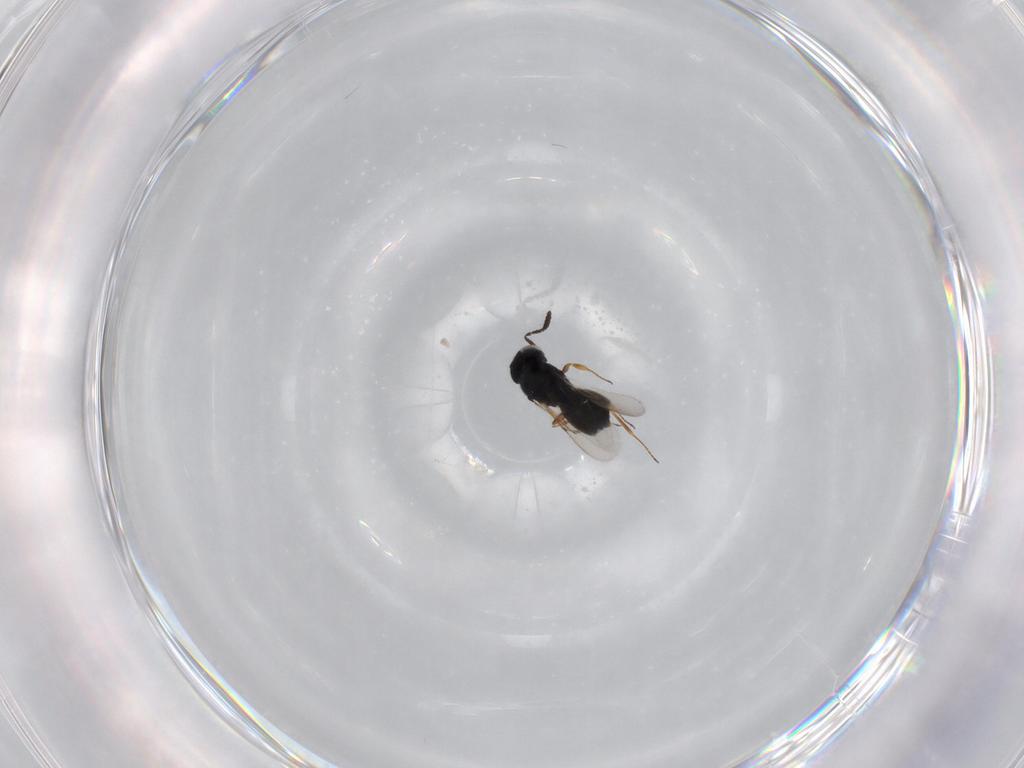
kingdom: Animalia
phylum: Arthropoda
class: Insecta
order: Hymenoptera
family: Scelionidae
